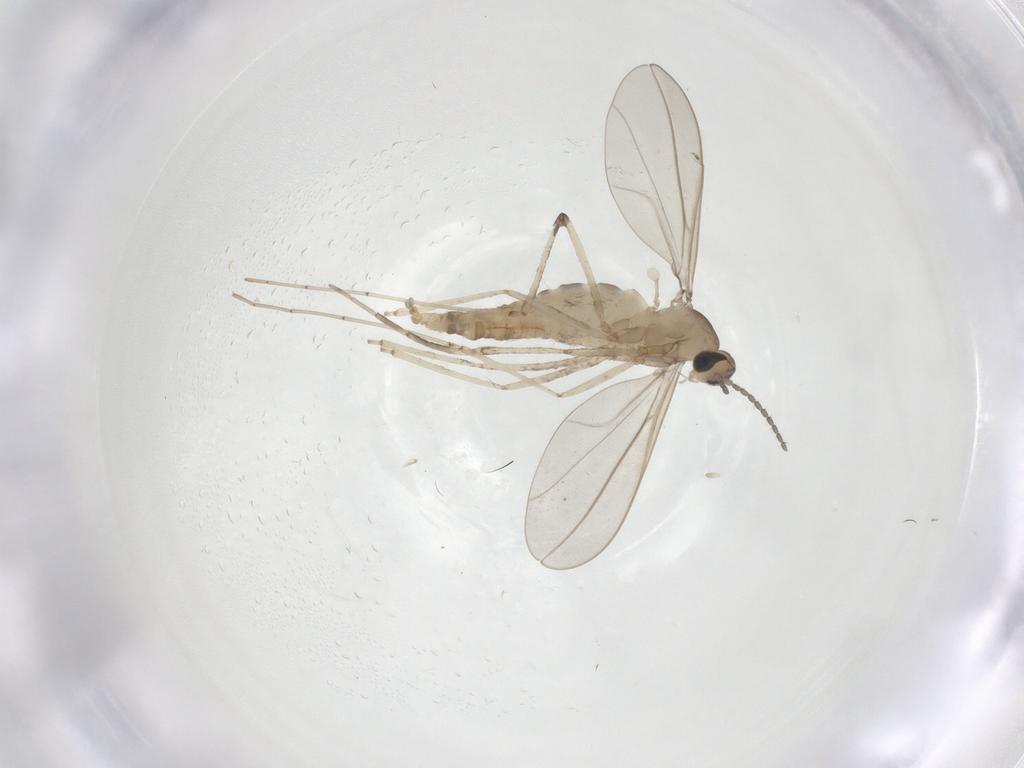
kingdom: Animalia
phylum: Arthropoda
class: Insecta
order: Diptera
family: Cecidomyiidae
